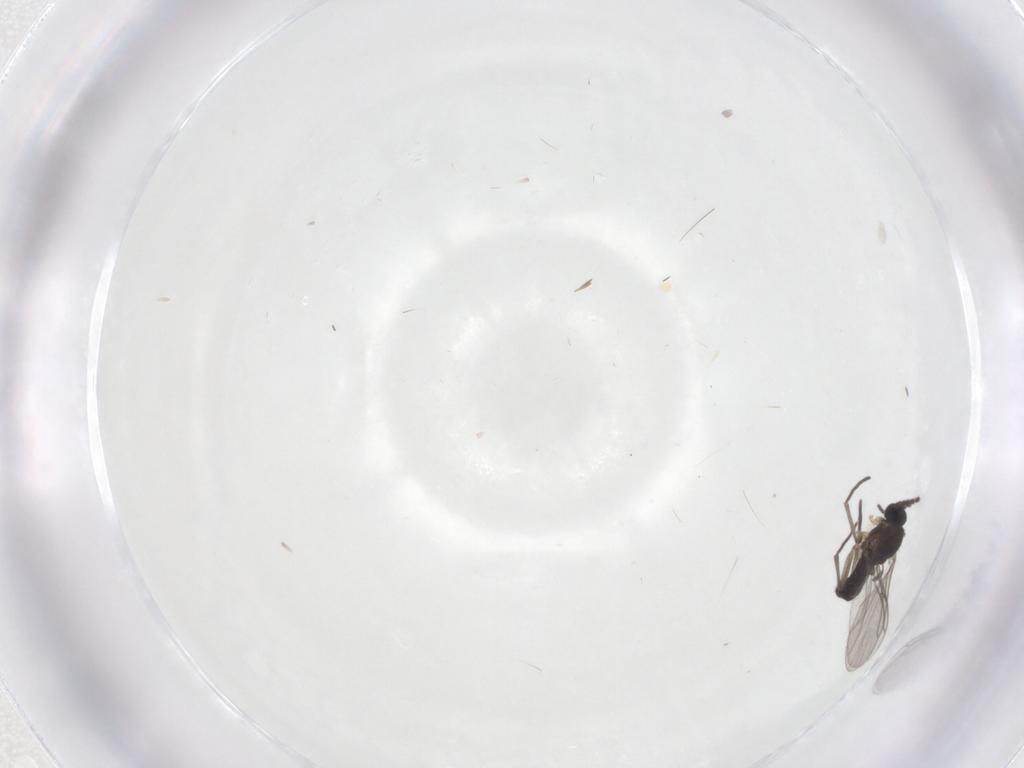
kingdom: Animalia
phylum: Arthropoda
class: Insecta
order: Diptera
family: Cecidomyiidae
